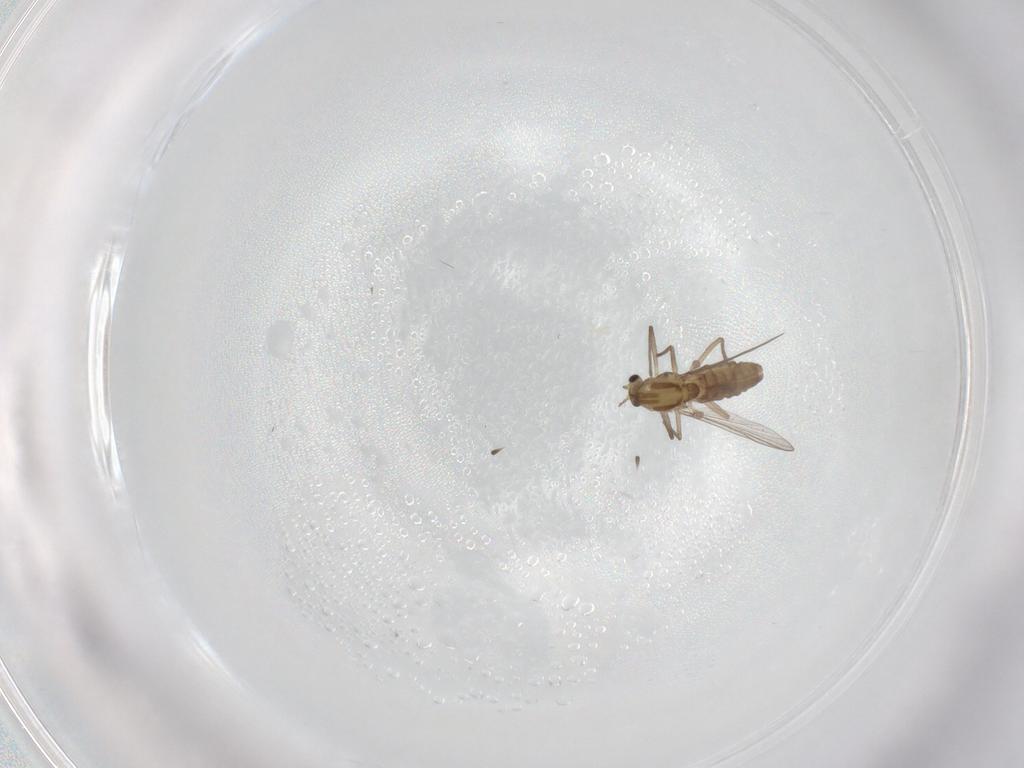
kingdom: Animalia
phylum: Arthropoda
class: Insecta
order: Diptera
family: Chironomidae
